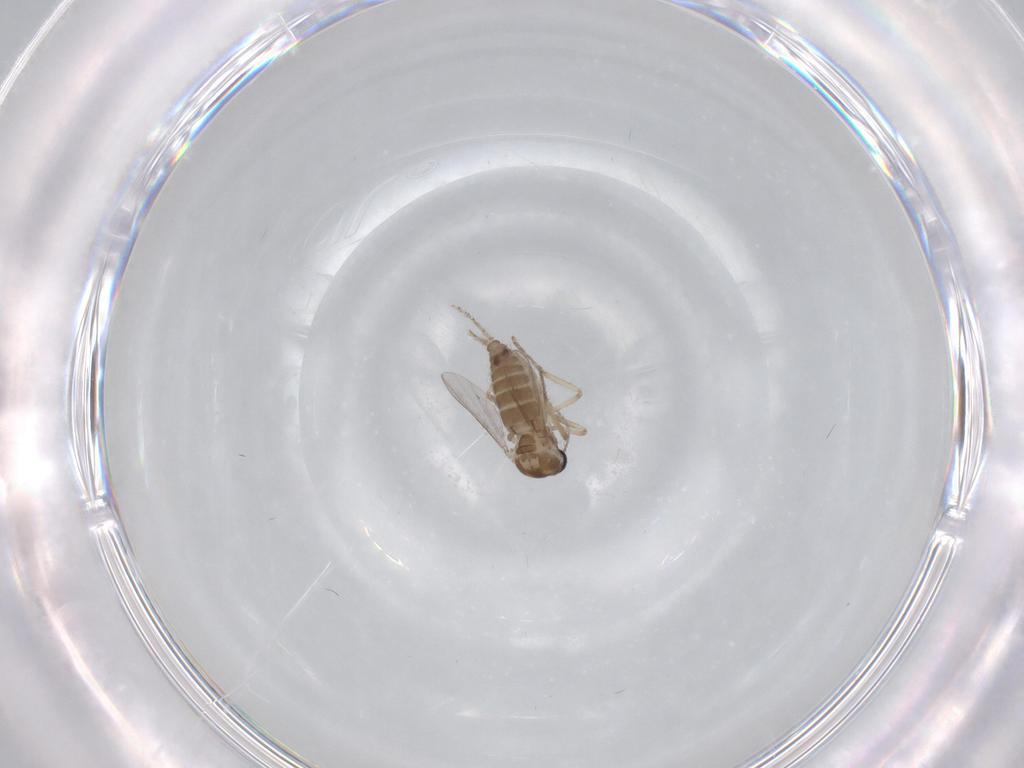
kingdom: Animalia
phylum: Arthropoda
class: Insecta
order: Diptera
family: Ceratopogonidae
